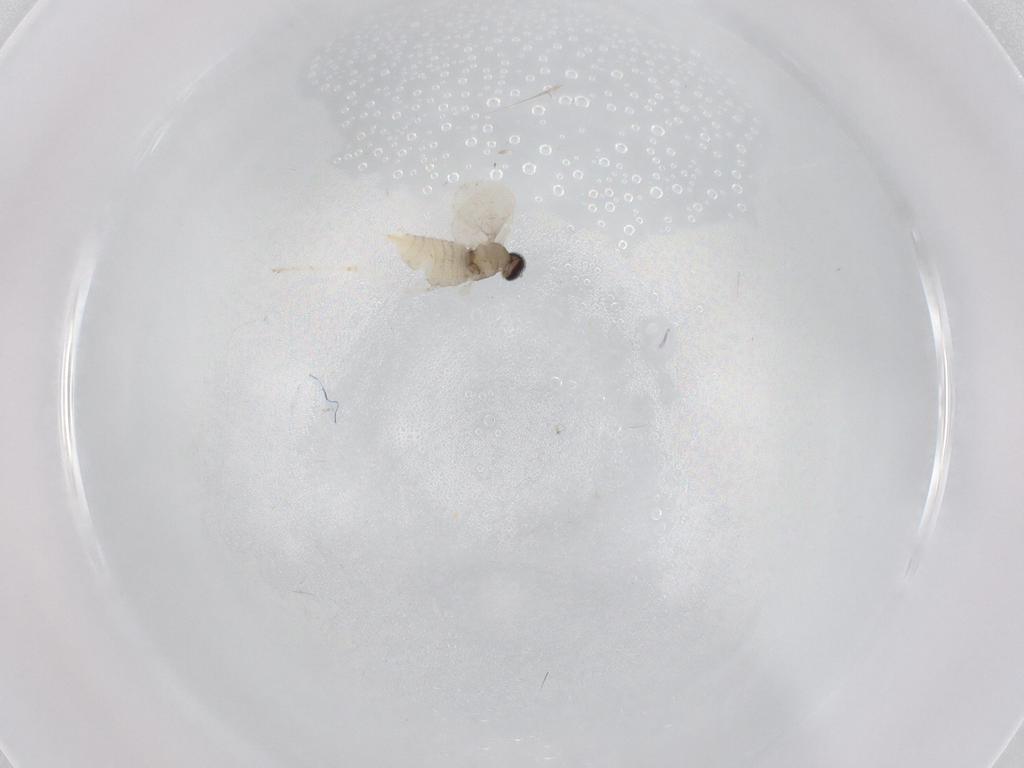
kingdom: Animalia
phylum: Arthropoda
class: Insecta
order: Diptera
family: Cecidomyiidae
